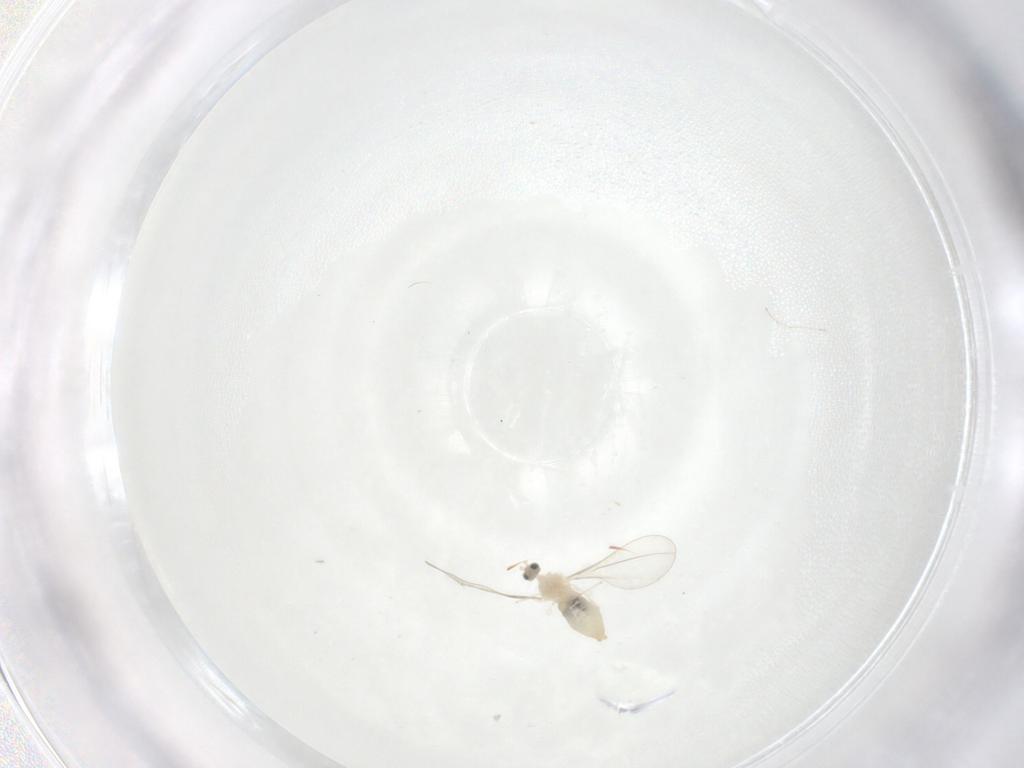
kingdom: Animalia
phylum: Arthropoda
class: Insecta
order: Diptera
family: Cecidomyiidae
